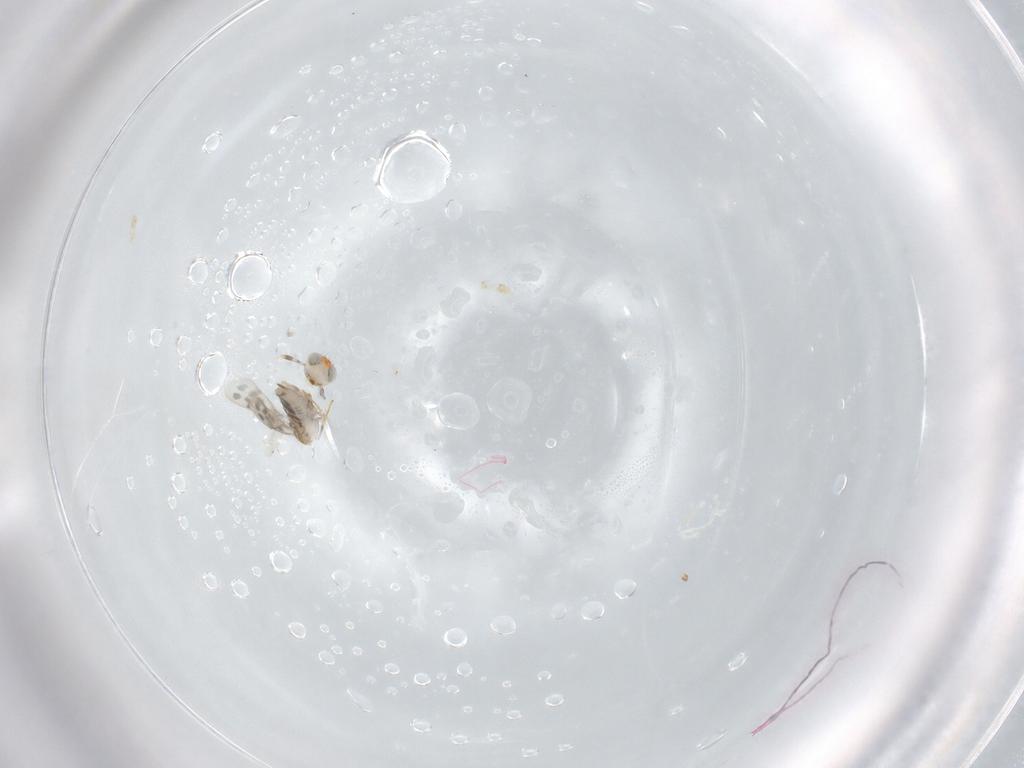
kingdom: Animalia
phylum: Arthropoda
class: Insecta
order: Hymenoptera
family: Aphelinidae
